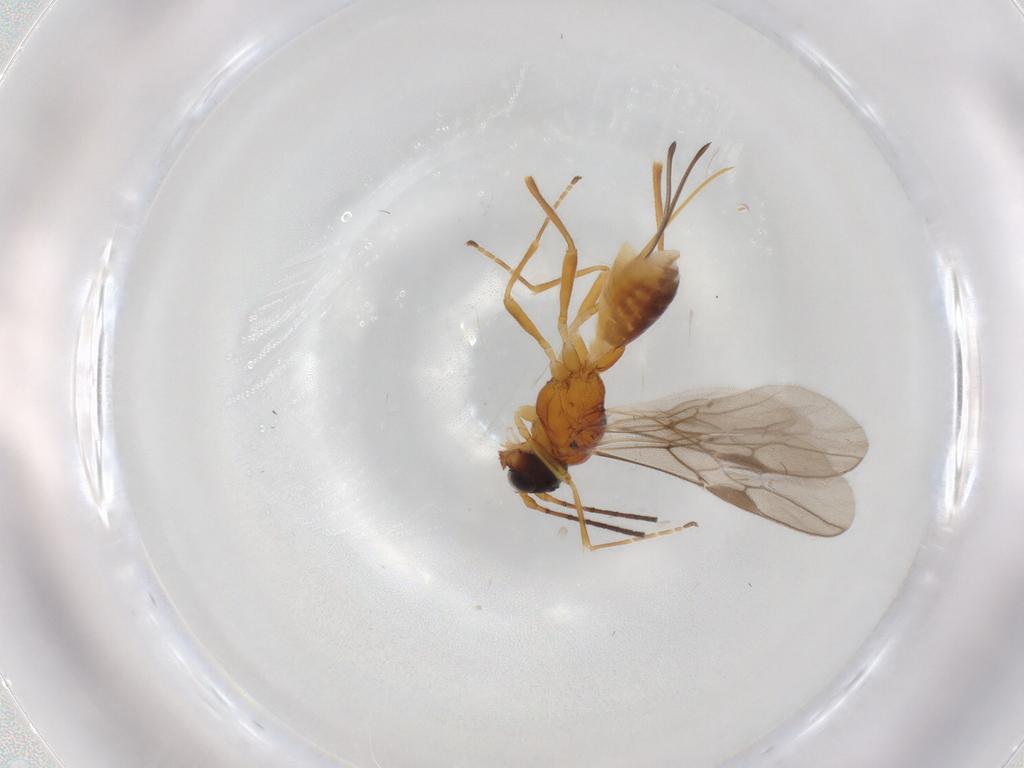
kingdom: Animalia
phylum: Arthropoda
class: Insecta
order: Hymenoptera
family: Braconidae
